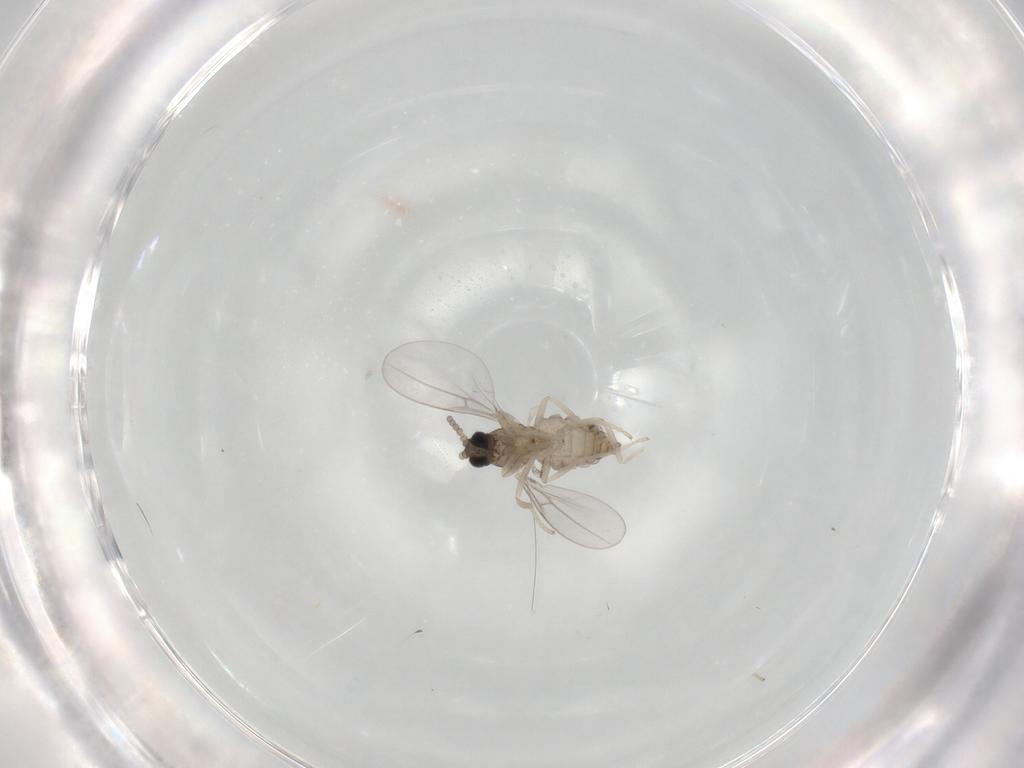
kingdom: Animalia
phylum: Arthropoda
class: Insecta
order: Diptera
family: Chironomidae
